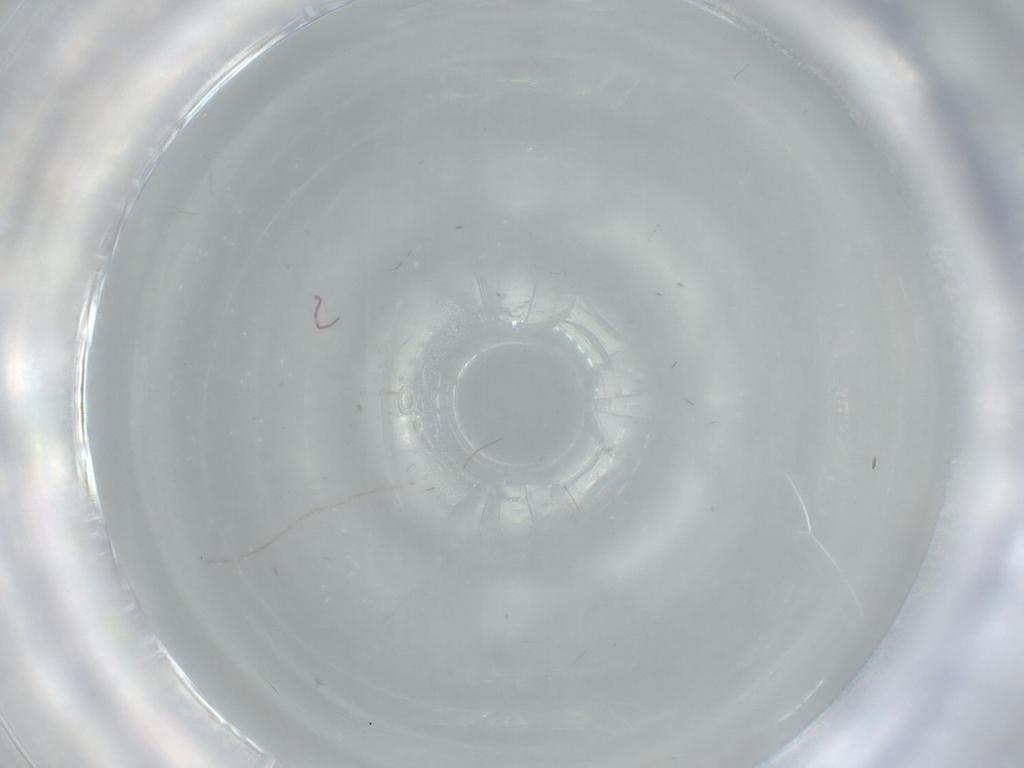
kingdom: Animalia
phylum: Arthropoda
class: Insecta
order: Diptera
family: Phoridae
